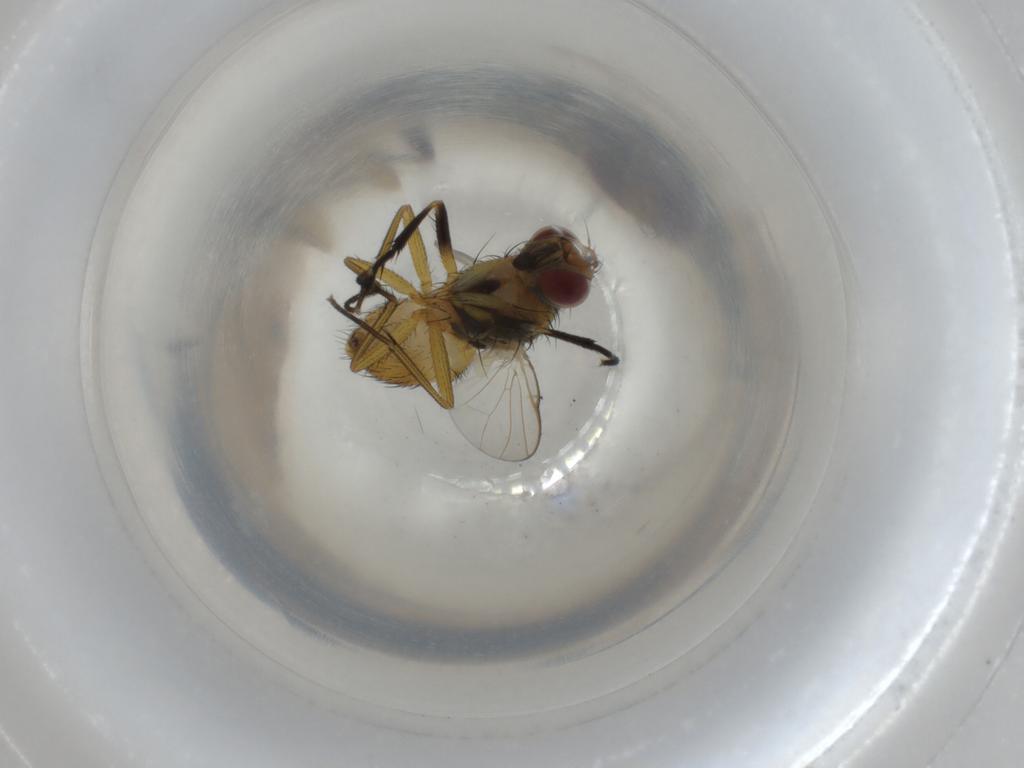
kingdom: Animalia
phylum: Arthropoda
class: Insecta
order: Diptera
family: Muscidae
